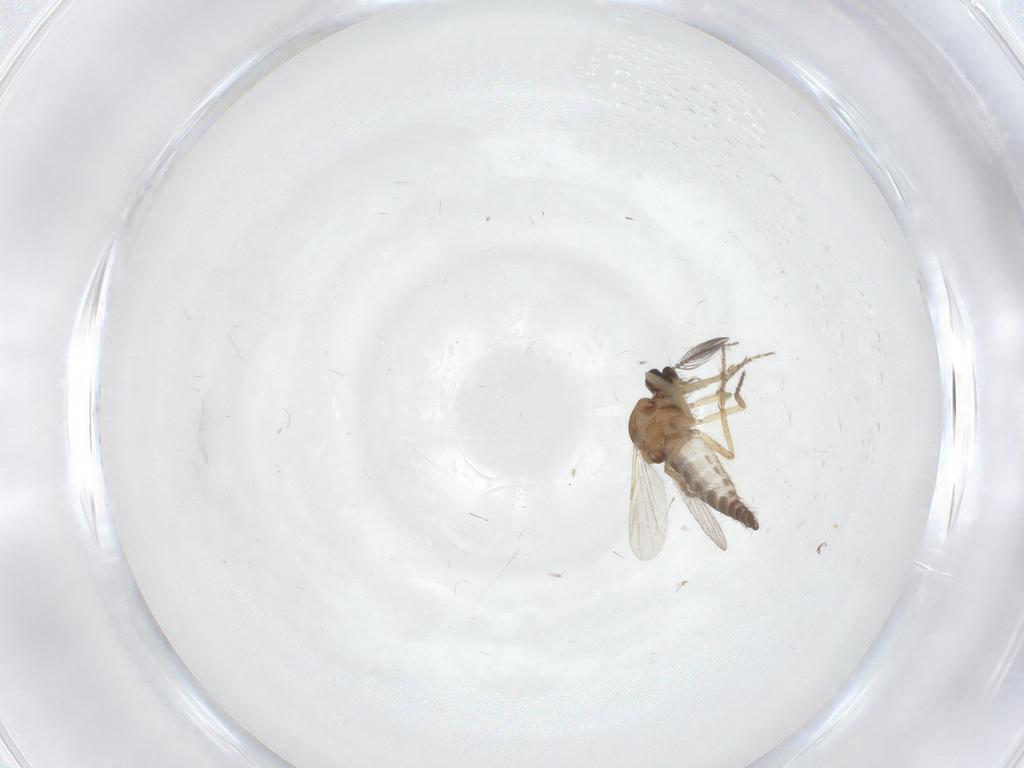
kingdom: Animalia
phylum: Arthropoda
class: Insecta
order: Diptera
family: Ceratopogonidae
